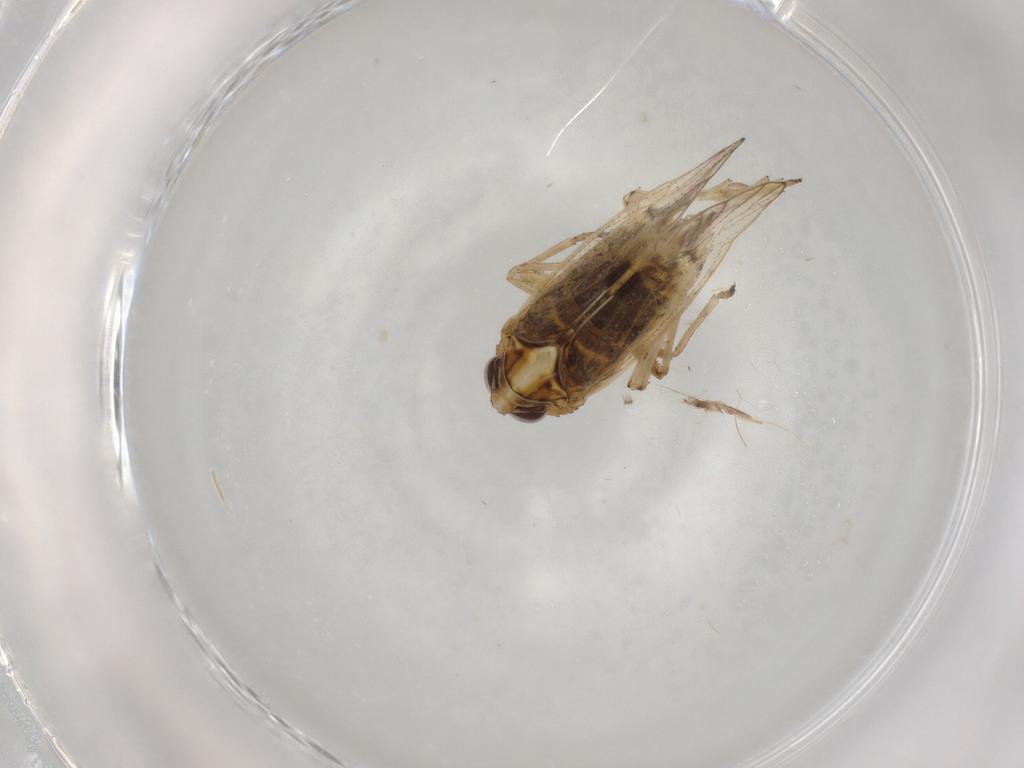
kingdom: Animalia
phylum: Arthropoda
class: Insecta
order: Hemiptera
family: Delphacidae
